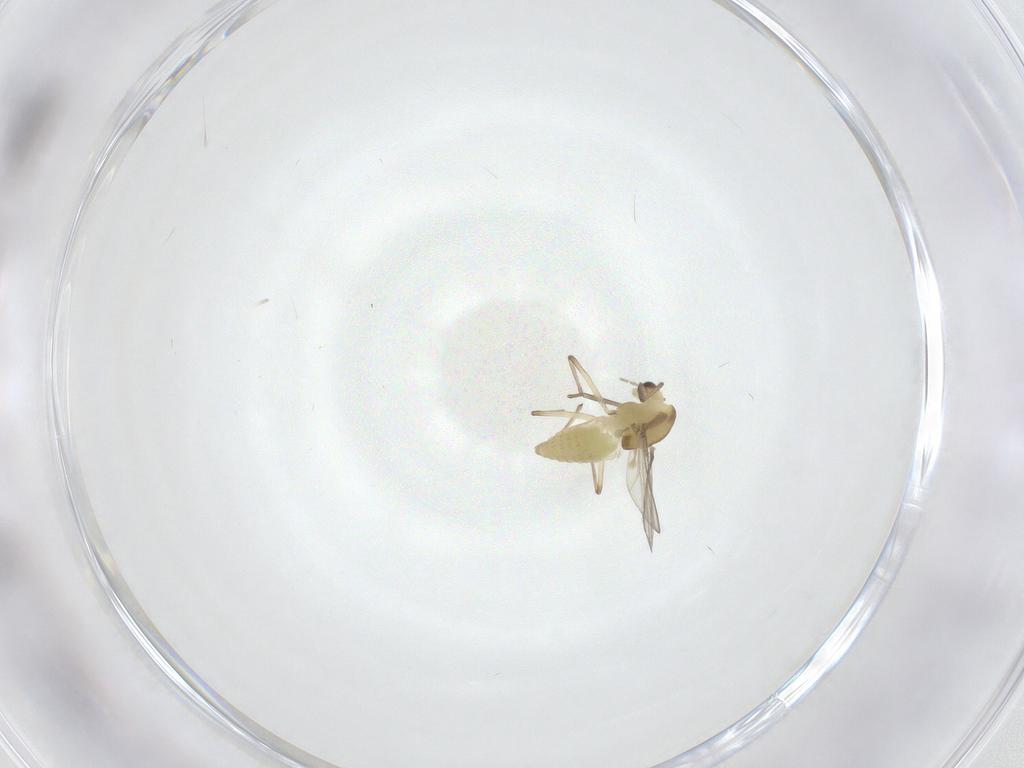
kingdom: Animalia
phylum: Arthropoda
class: Insecta
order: Diptera
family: Chironomidae
